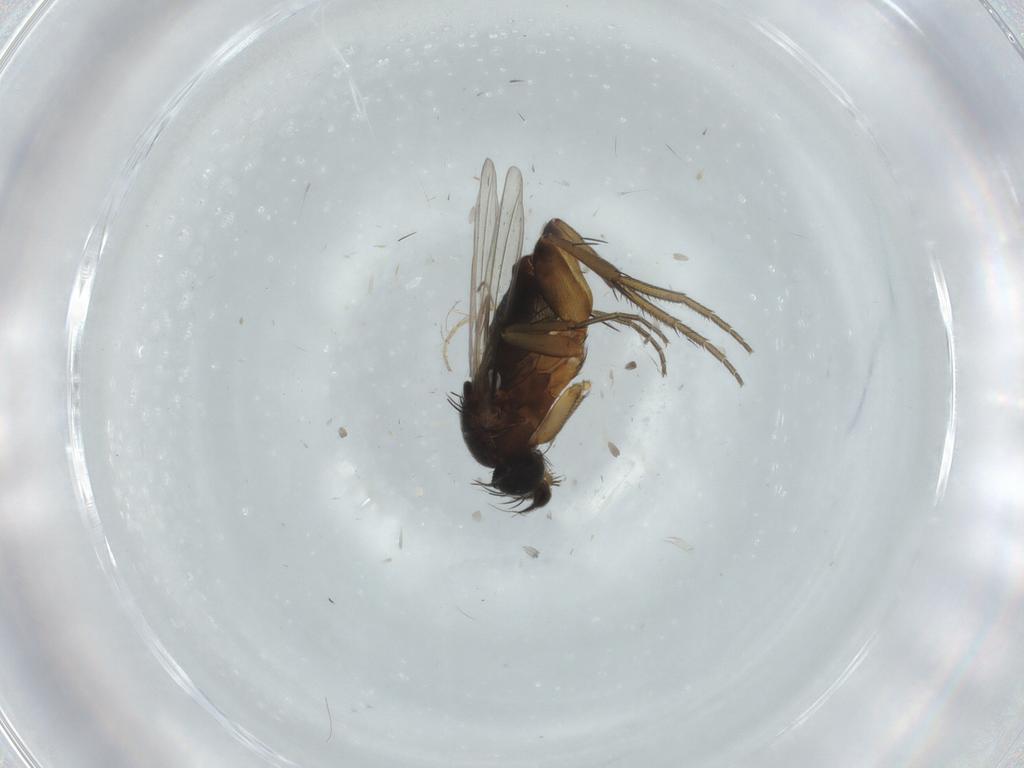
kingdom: Animalia
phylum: Arthropoda
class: Insecta
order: Diptera
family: Phoridae
